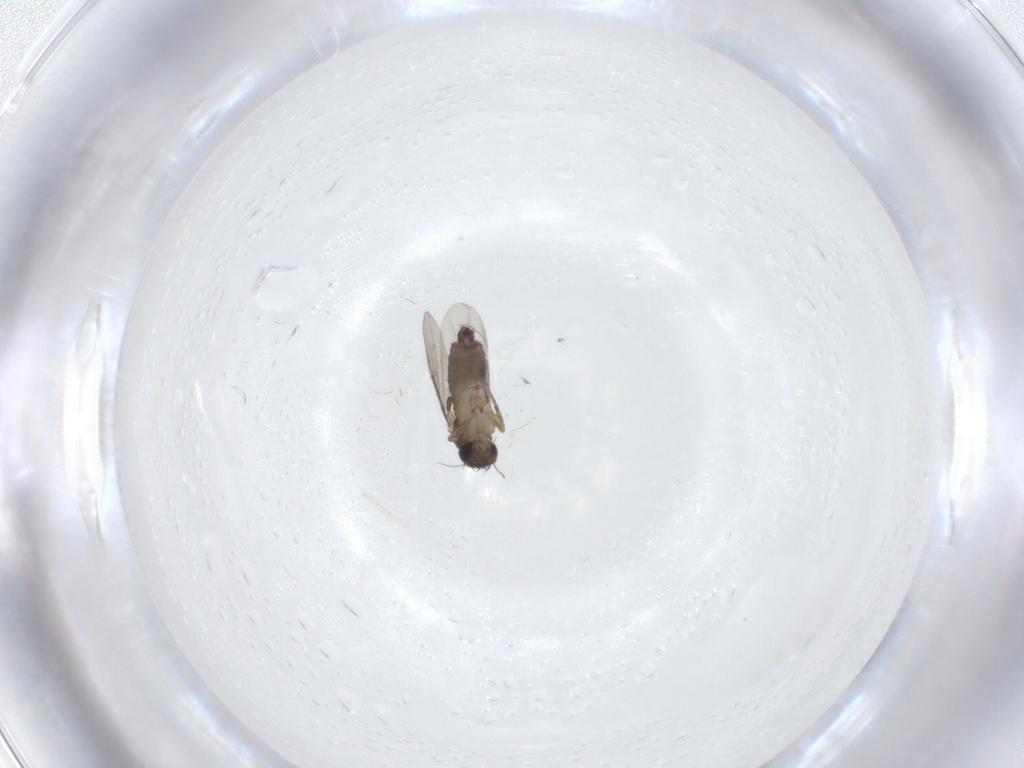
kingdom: Animalia
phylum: Arthropoda
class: Insecta
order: Diptera
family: Phoridae
